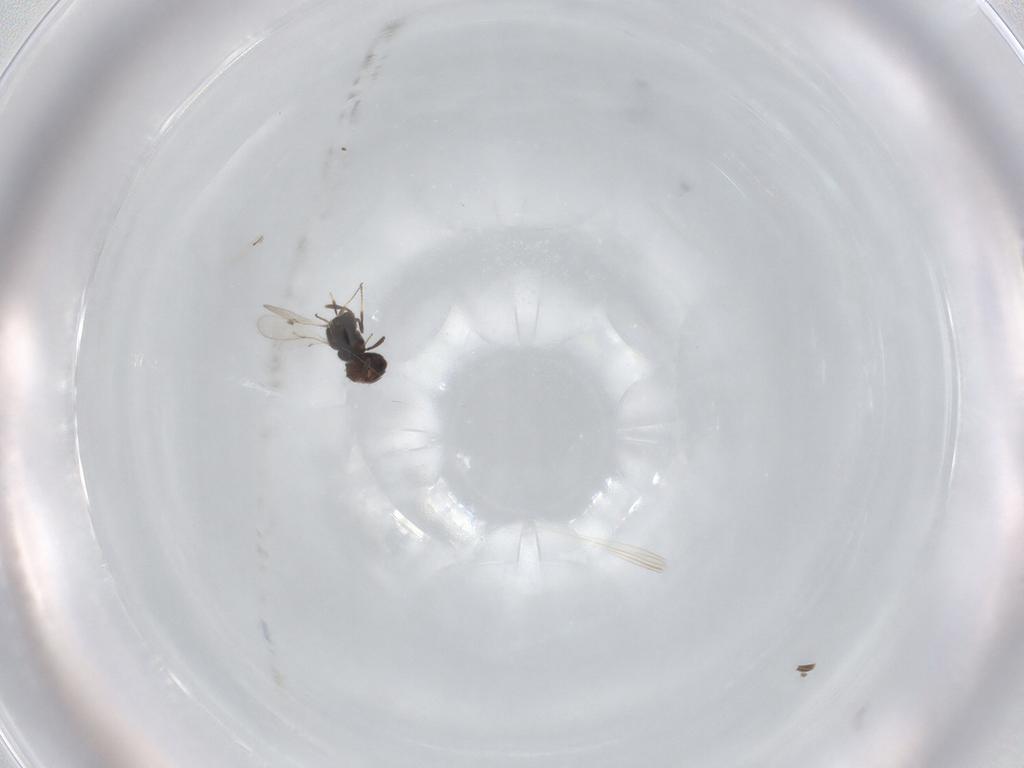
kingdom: Animalia
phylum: Arthropoda
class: Insecta
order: Hymenoptera
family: Scelionidae
